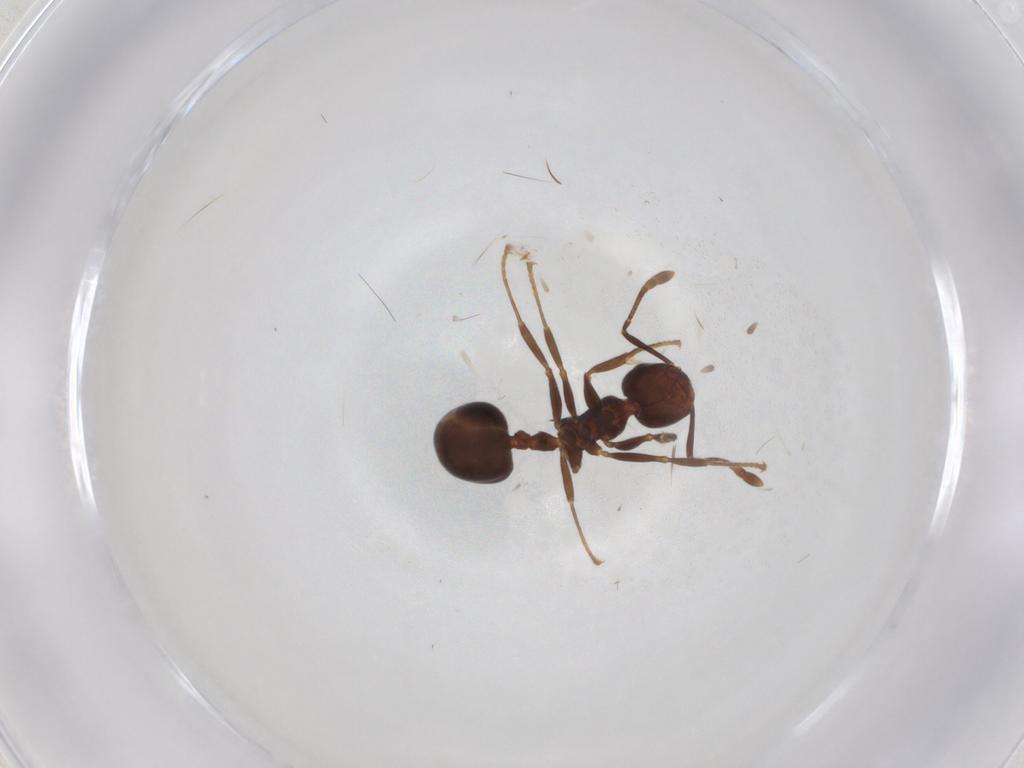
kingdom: Animalia
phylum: Arthropoda
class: Insecta
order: Hymenoptera
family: Formicidae
